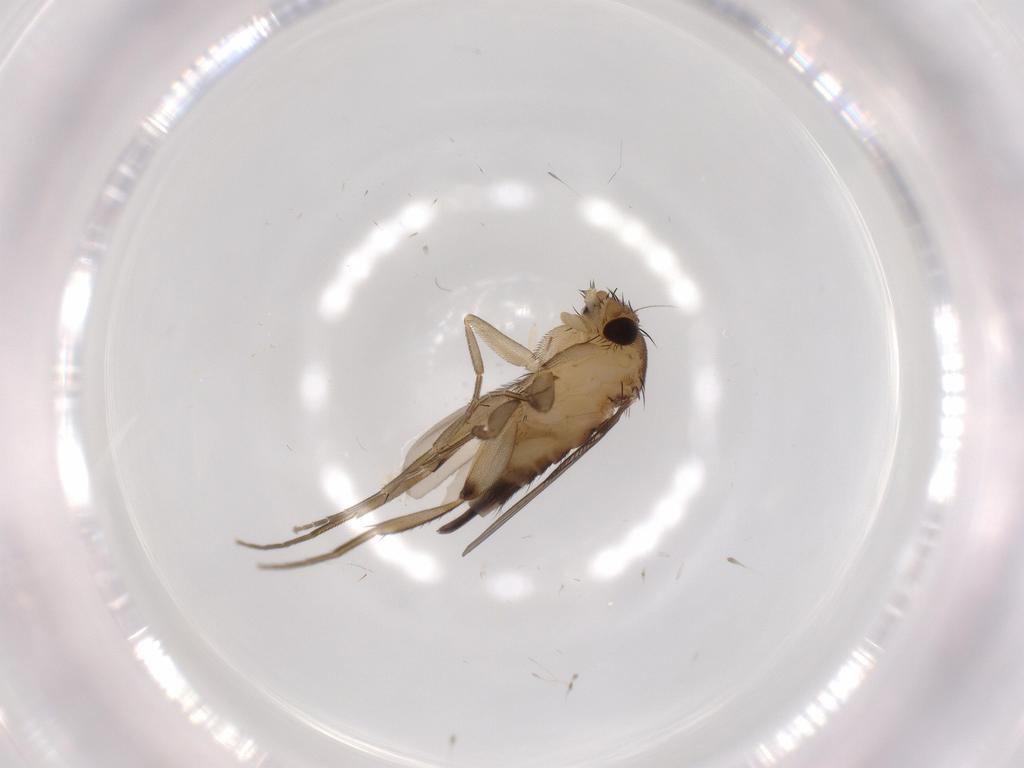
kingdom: Animalia
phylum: Arthropoda
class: Insecta
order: Diptera
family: Phoridae
